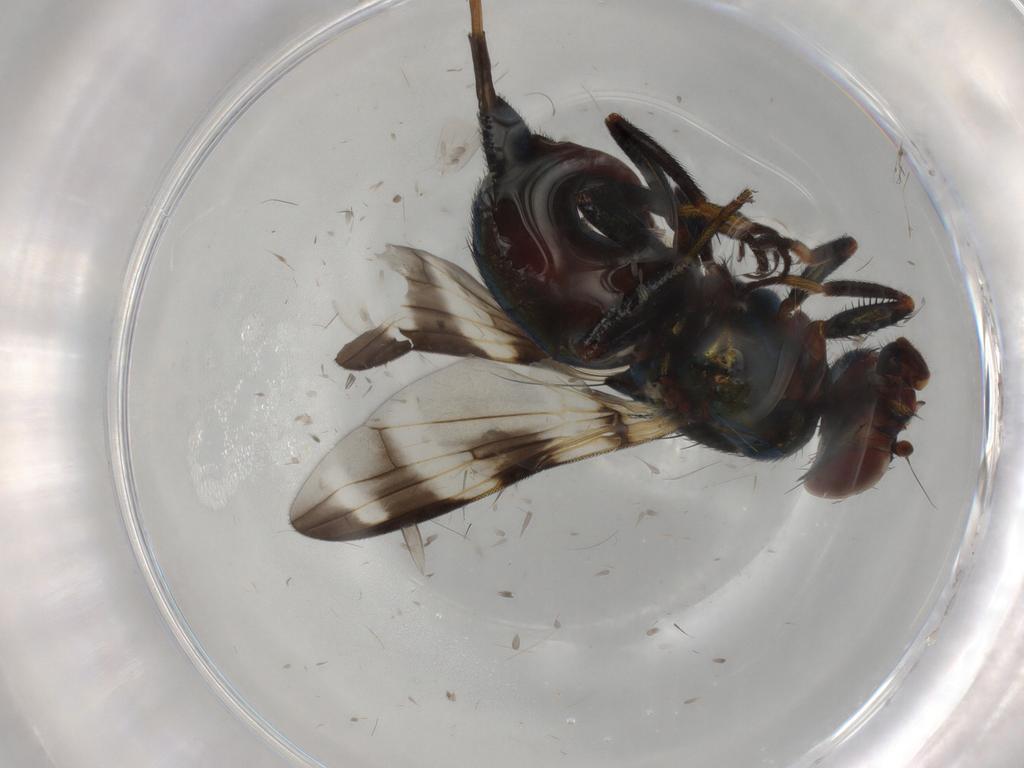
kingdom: Animalia
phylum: Arthropoda
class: Insecta
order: Diptera
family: Ulidiidae
